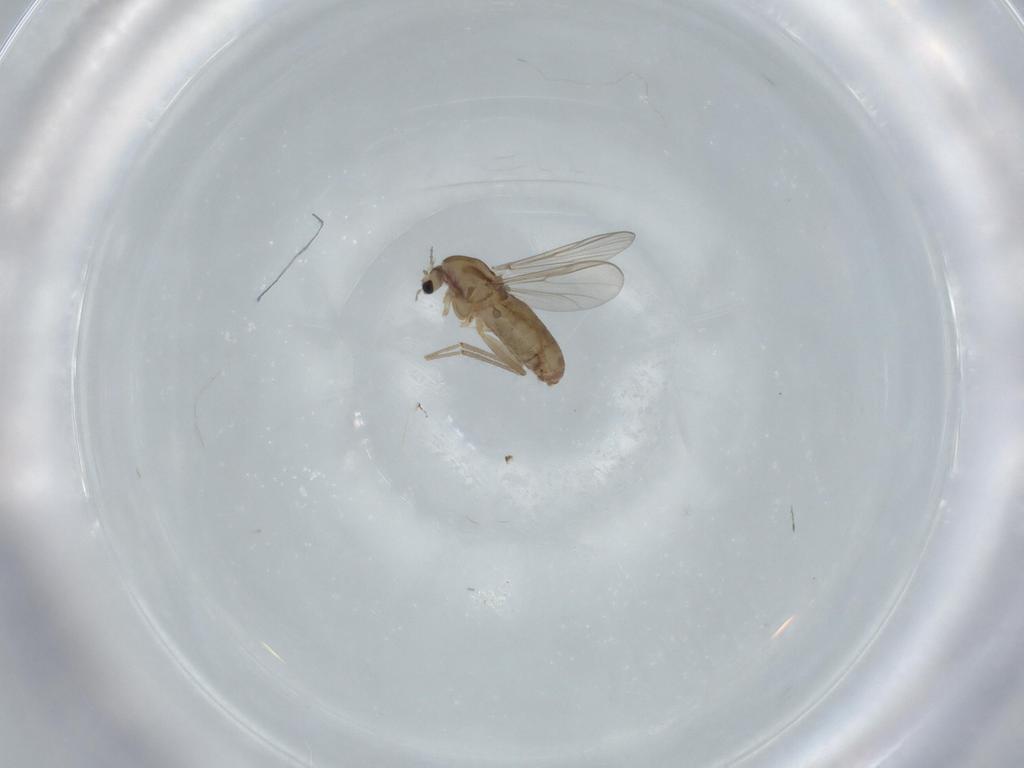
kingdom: Animalia
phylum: Arthropoda
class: Insecta
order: Diptera
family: Chironomidae
